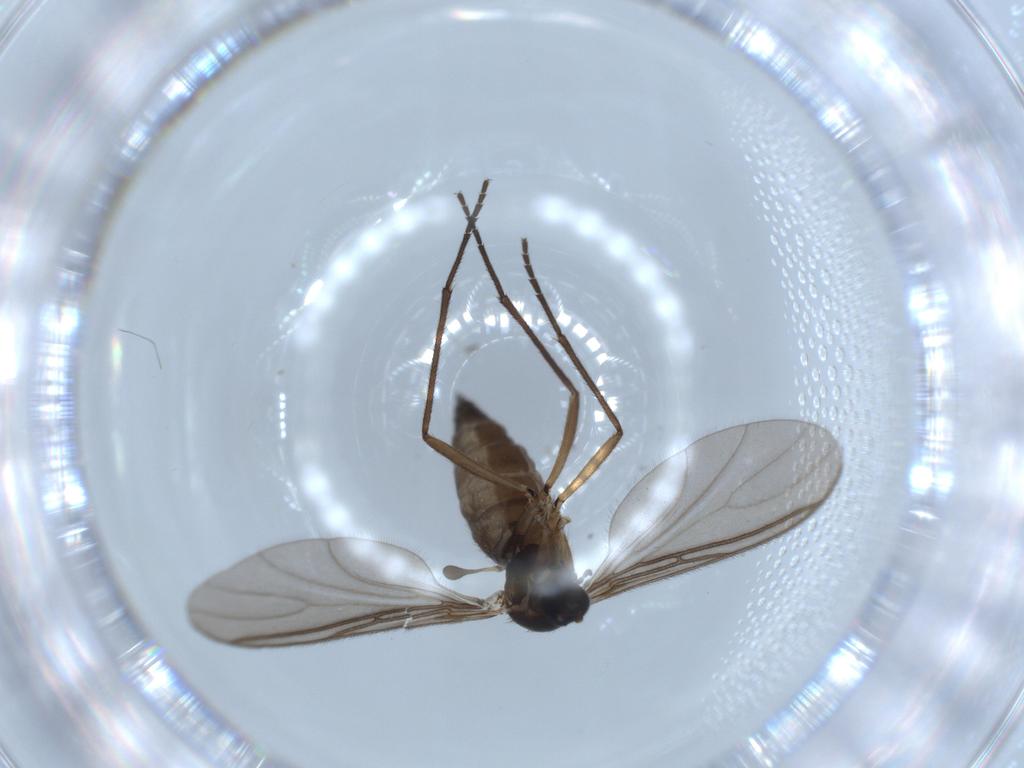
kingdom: Animalia
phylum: Arthropoda
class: Insecta
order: Diptera
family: Sciaridae
